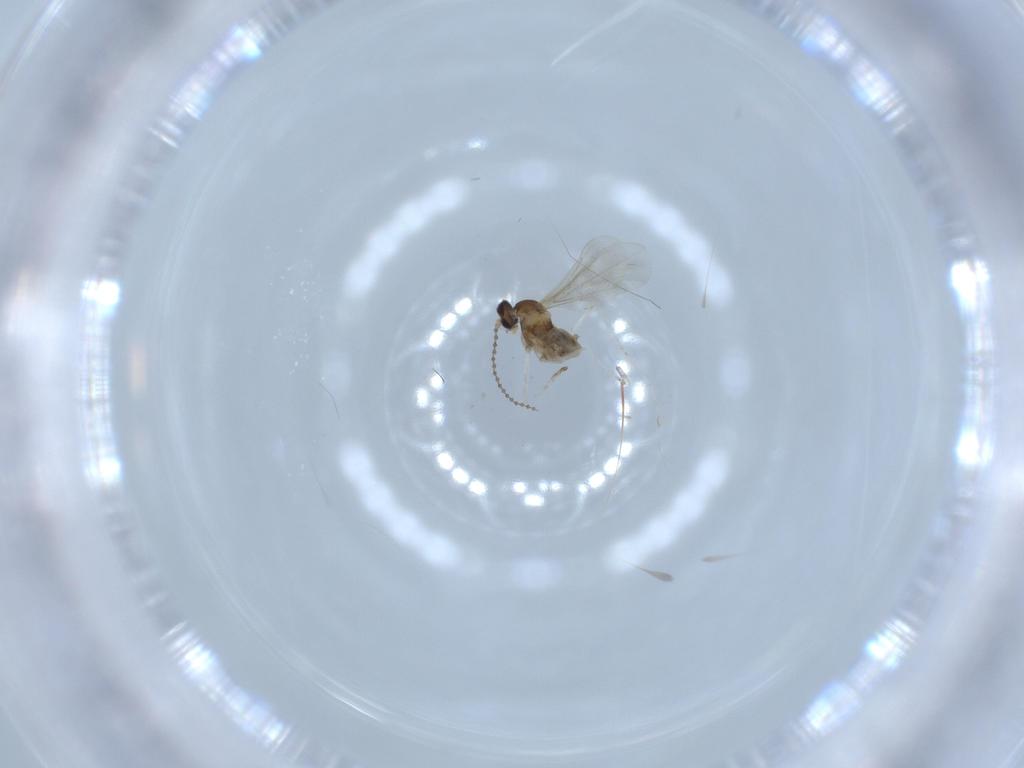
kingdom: Animalia
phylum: Arthropoda
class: Insecta
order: Diptera
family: Cecidomyiidae
